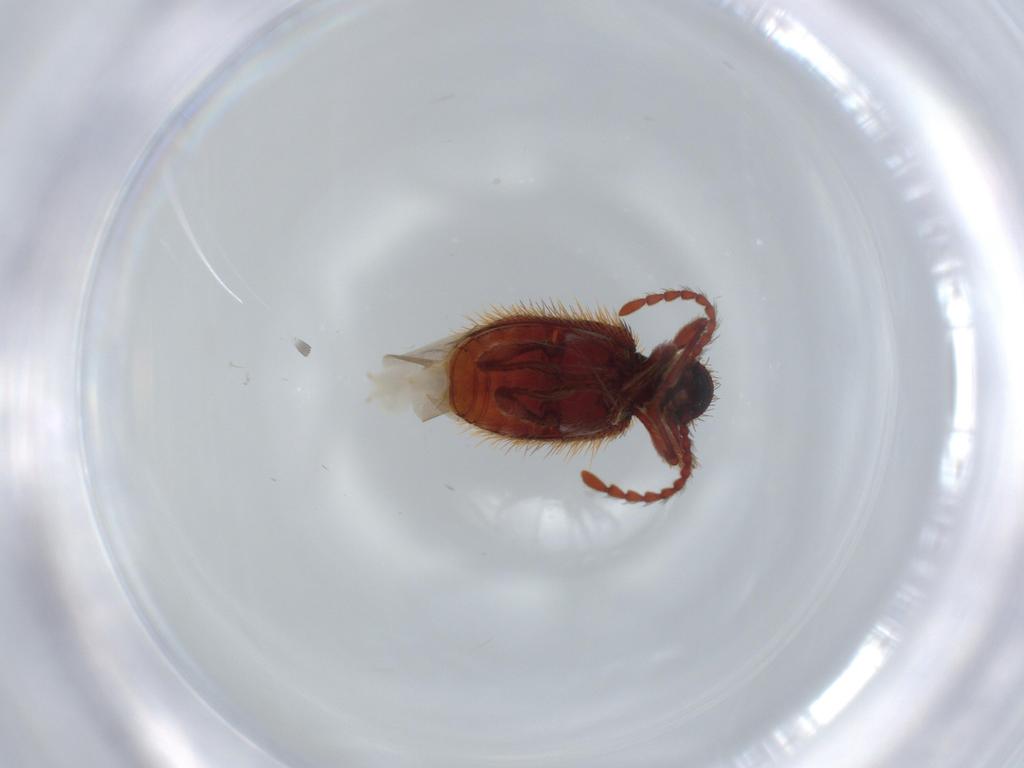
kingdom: Animalia
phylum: Arthropoda
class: Insecta
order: Coleoptera
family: Ptinidae
